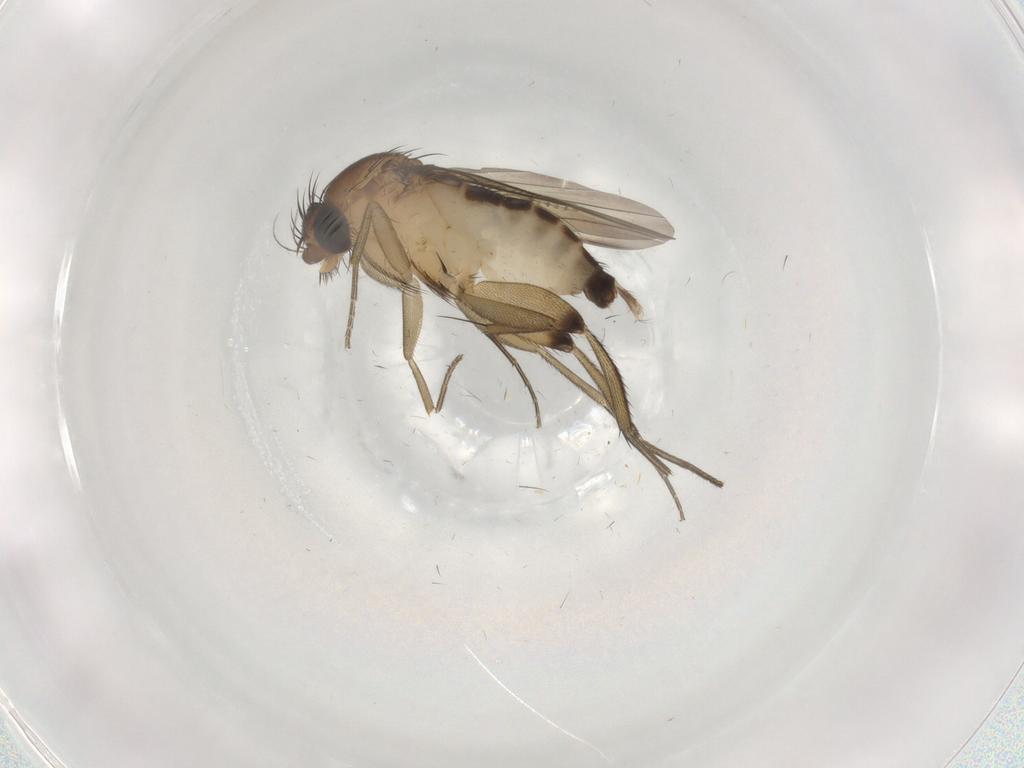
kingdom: Animalia
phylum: Arthropoda
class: Insecta
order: Diptera
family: Phoridae
